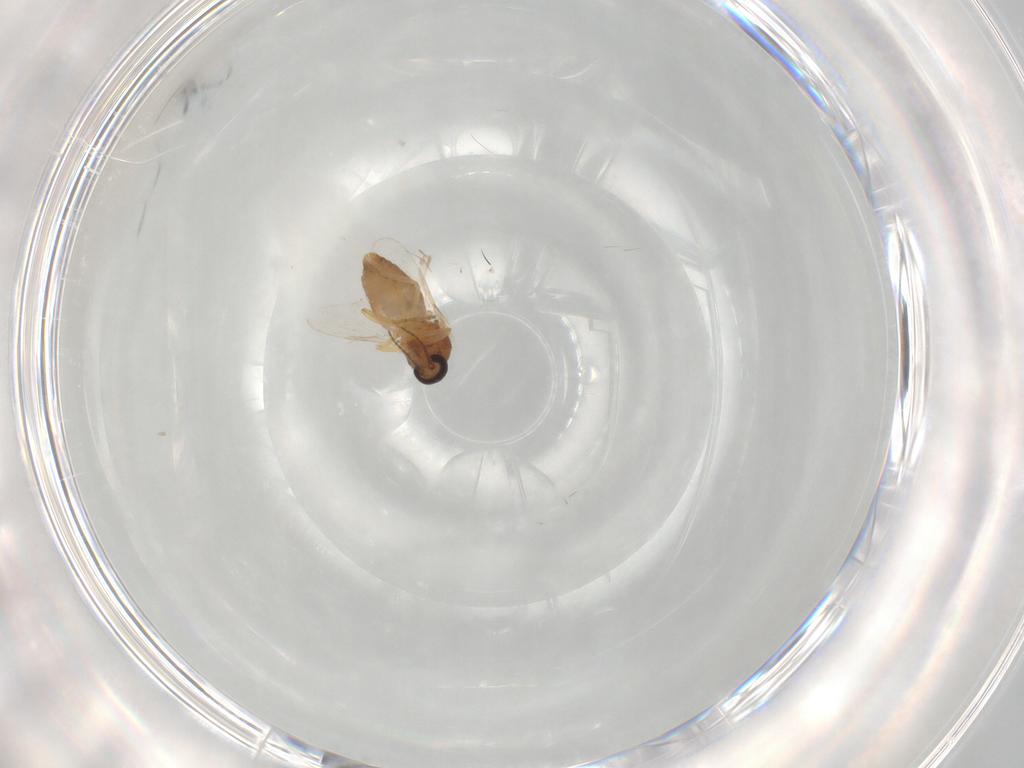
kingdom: Animalia
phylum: Arthropoda
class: Insecta
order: Diptera
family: Ceratopogonidae
